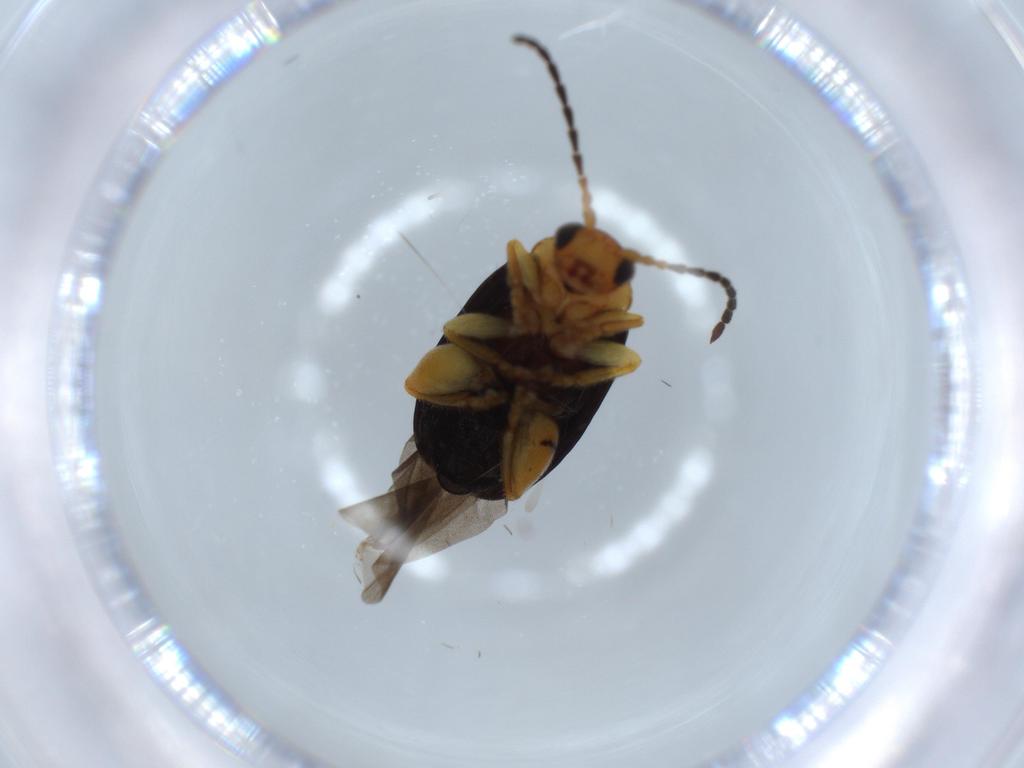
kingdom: Animalia
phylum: Arthropoda
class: Insecta
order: Coleoptera
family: Chrysomelidae
